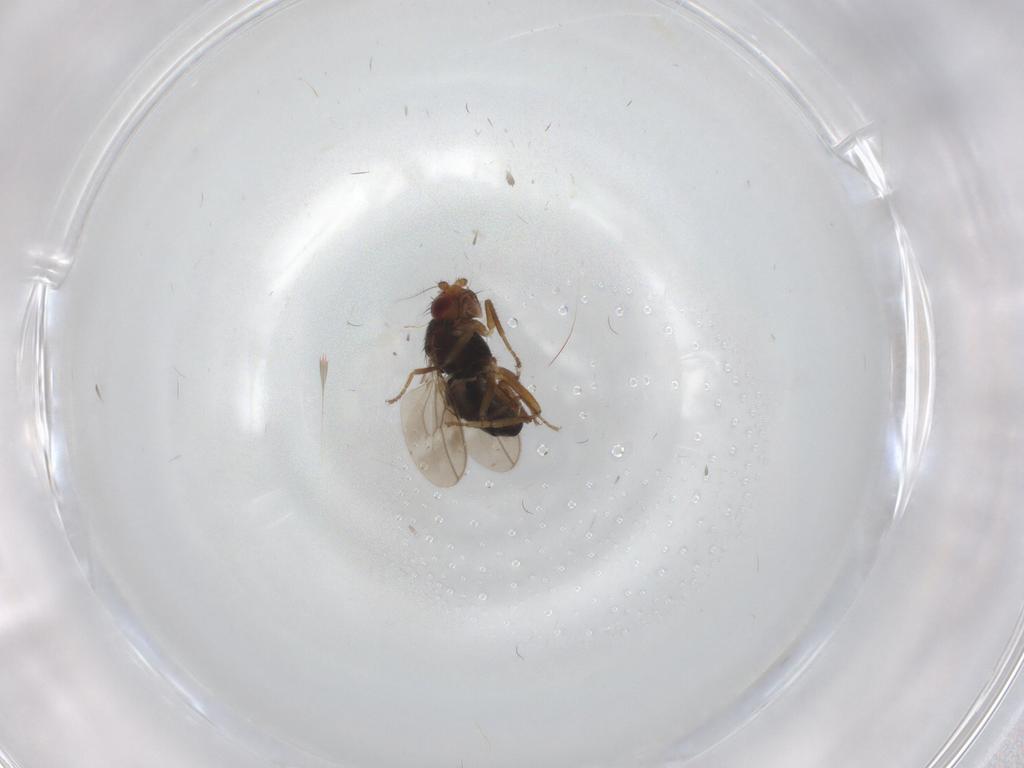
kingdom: Animalia
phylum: Arthropoda
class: Insecta
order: Diptera
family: Sphaeroceridae
